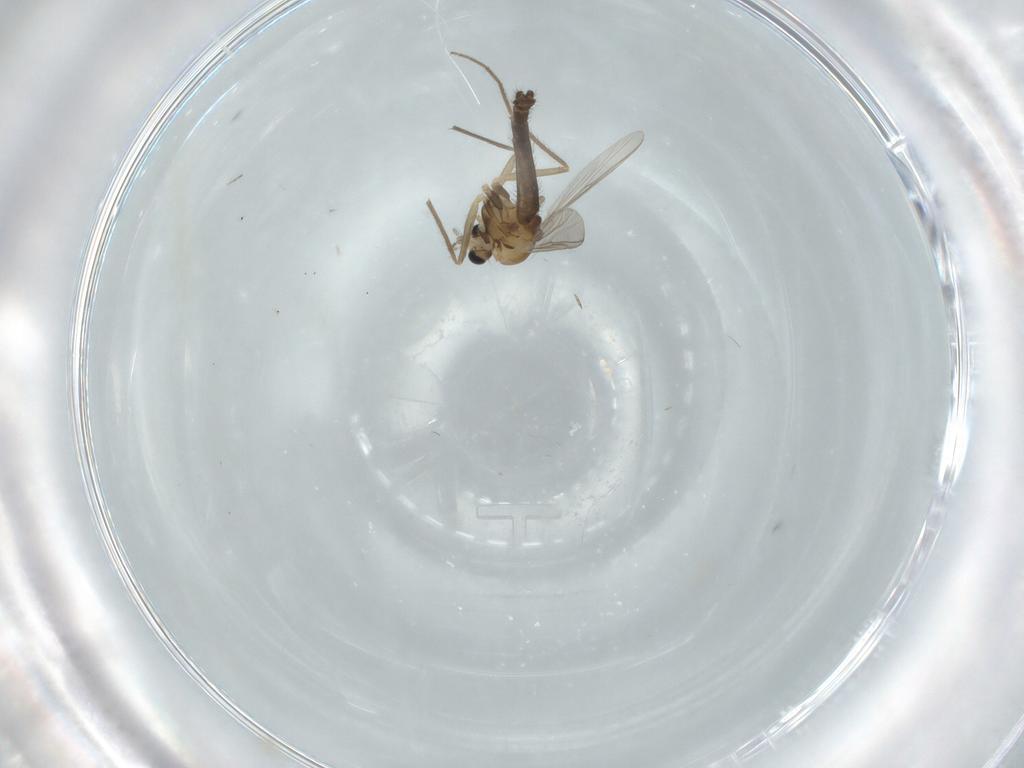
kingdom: Animalia
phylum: Arthropoda
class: Insecta
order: Diptera
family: Chironomidae
